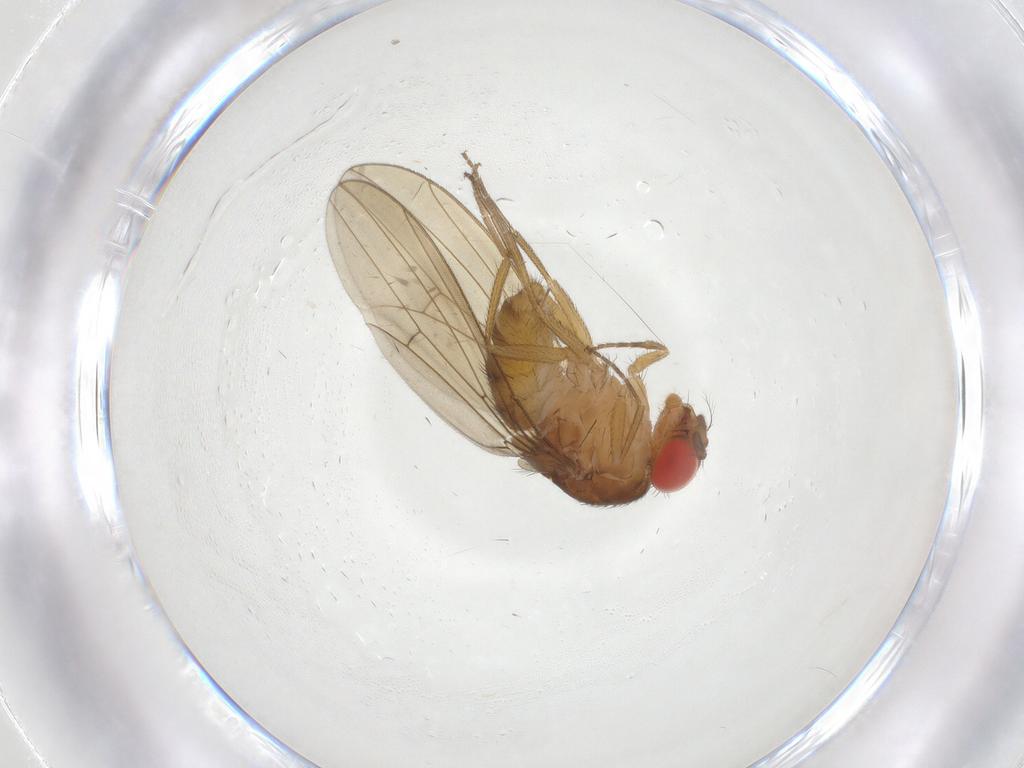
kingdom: Animalia
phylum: Arthropoda
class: Insecta
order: Diptera
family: Drosophilidae
